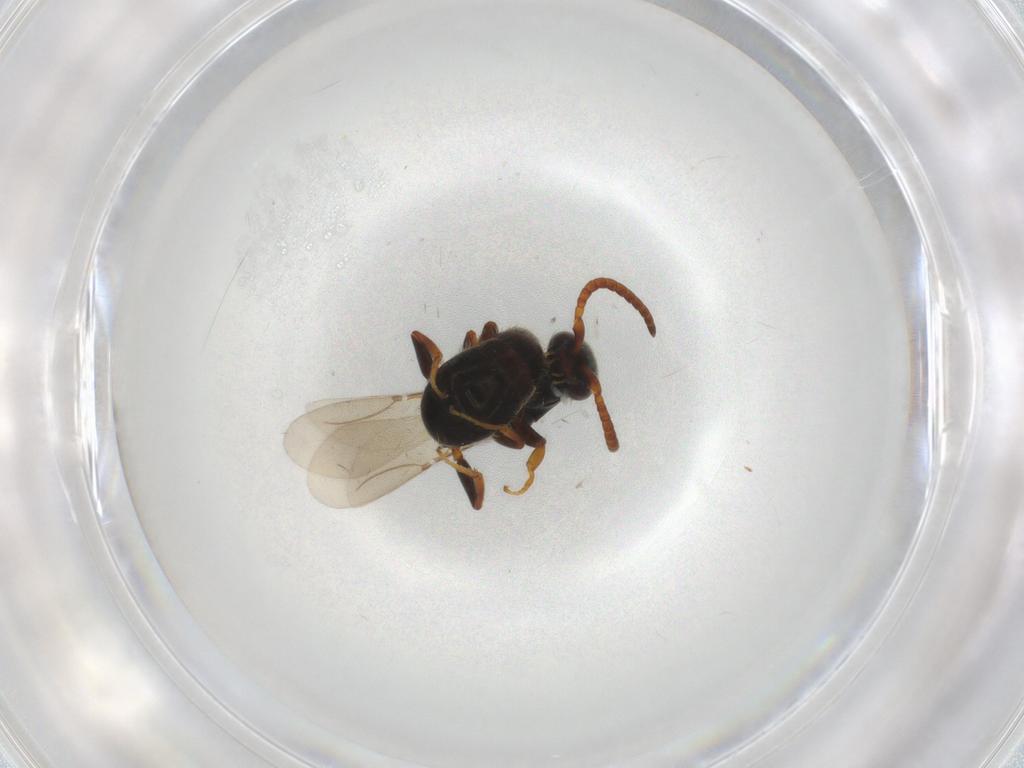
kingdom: Animalia
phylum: Arthropoda
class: Insecta
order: Hymenoptera
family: Bethylidae
